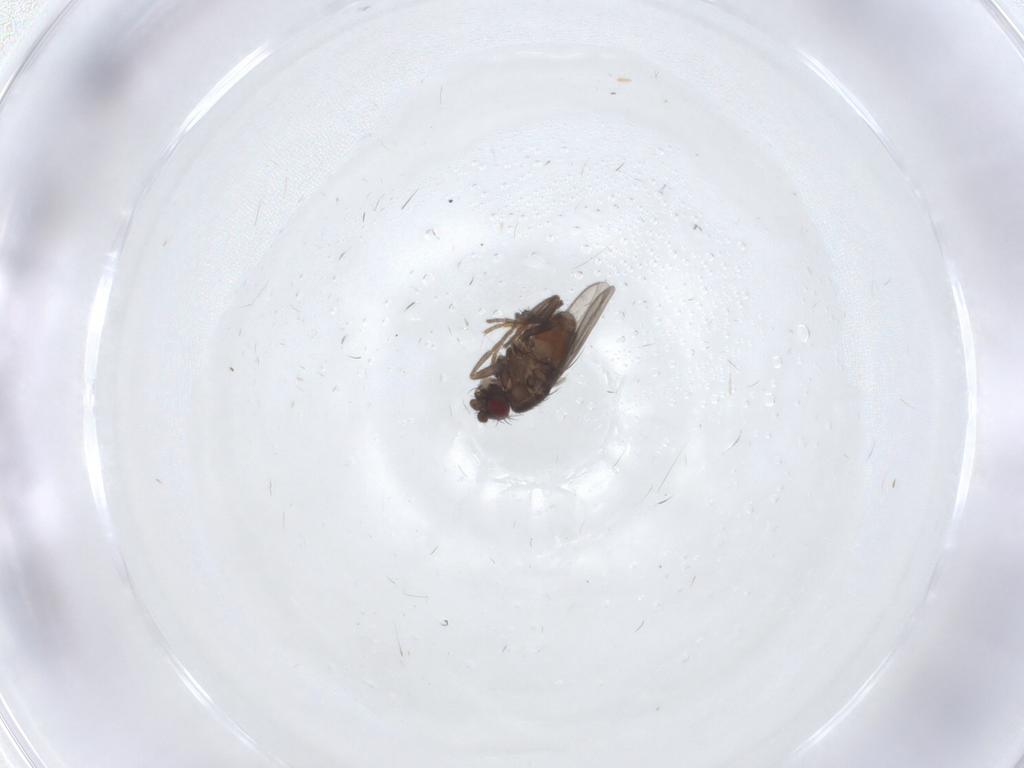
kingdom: Animalia
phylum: Arthropoda
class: Insecta
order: Diptera
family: Sphaeroceridae
